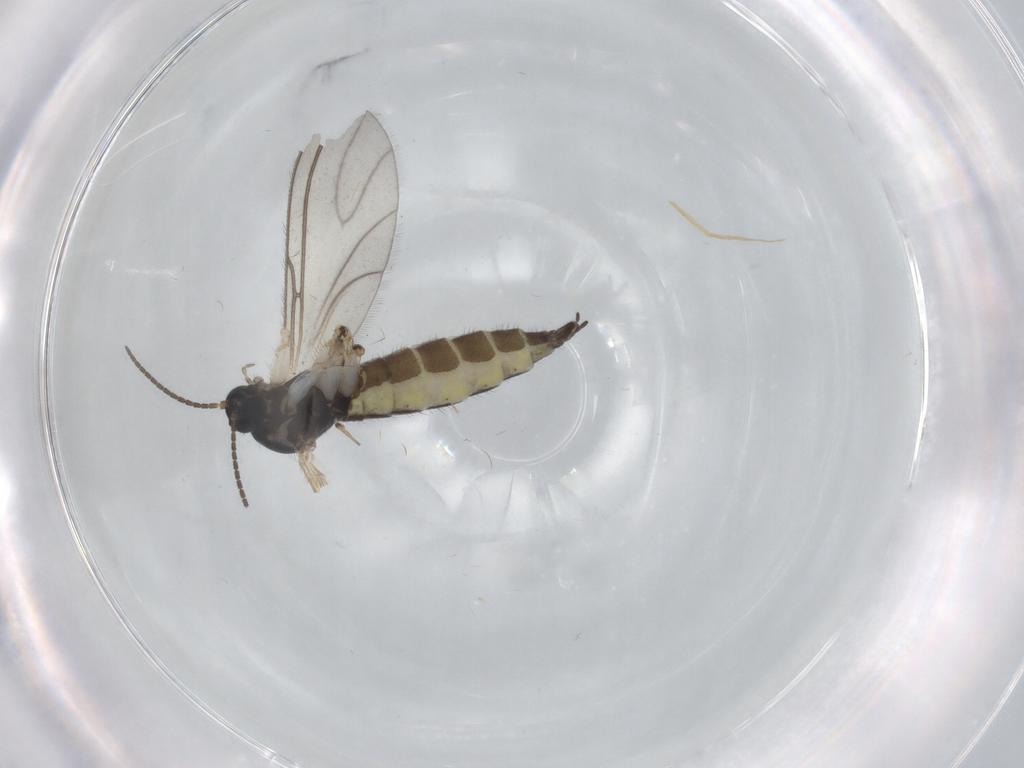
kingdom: Animalia
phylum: Arthropoda
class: Insecta
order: Diptera
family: Sciaridae
